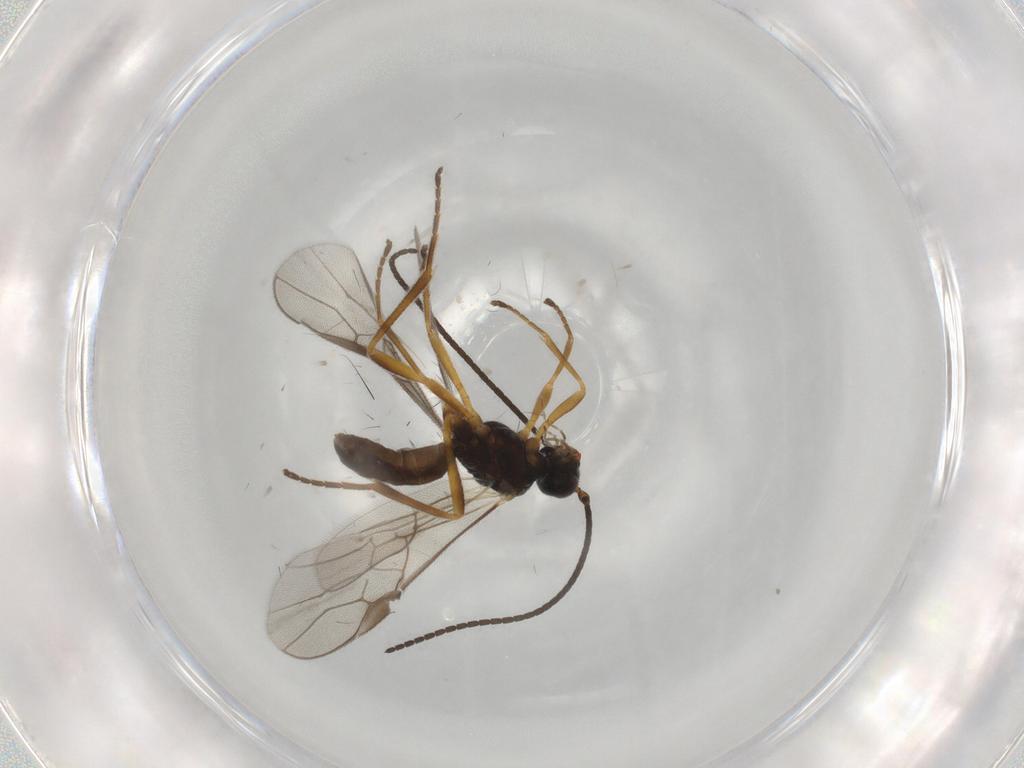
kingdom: Animalia
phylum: Arthropoda
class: Insecta
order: Hymenoptera
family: Braconidae
